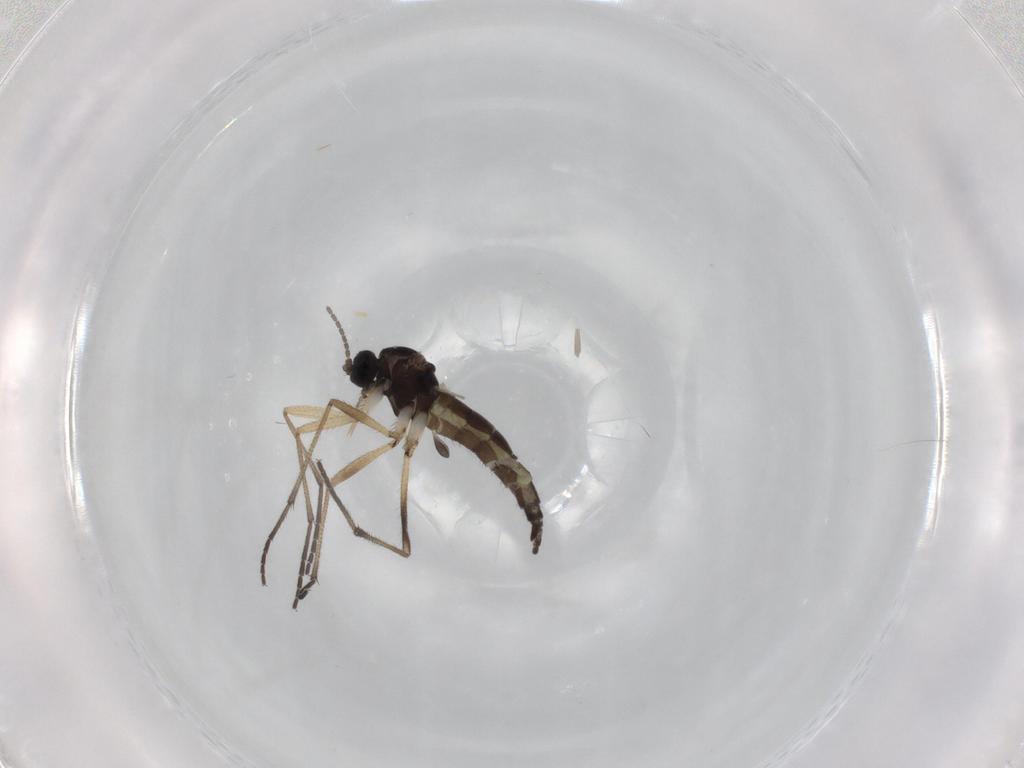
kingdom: Animalia
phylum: Arthropoda
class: Insecta
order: Diptera
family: Sciaridae
